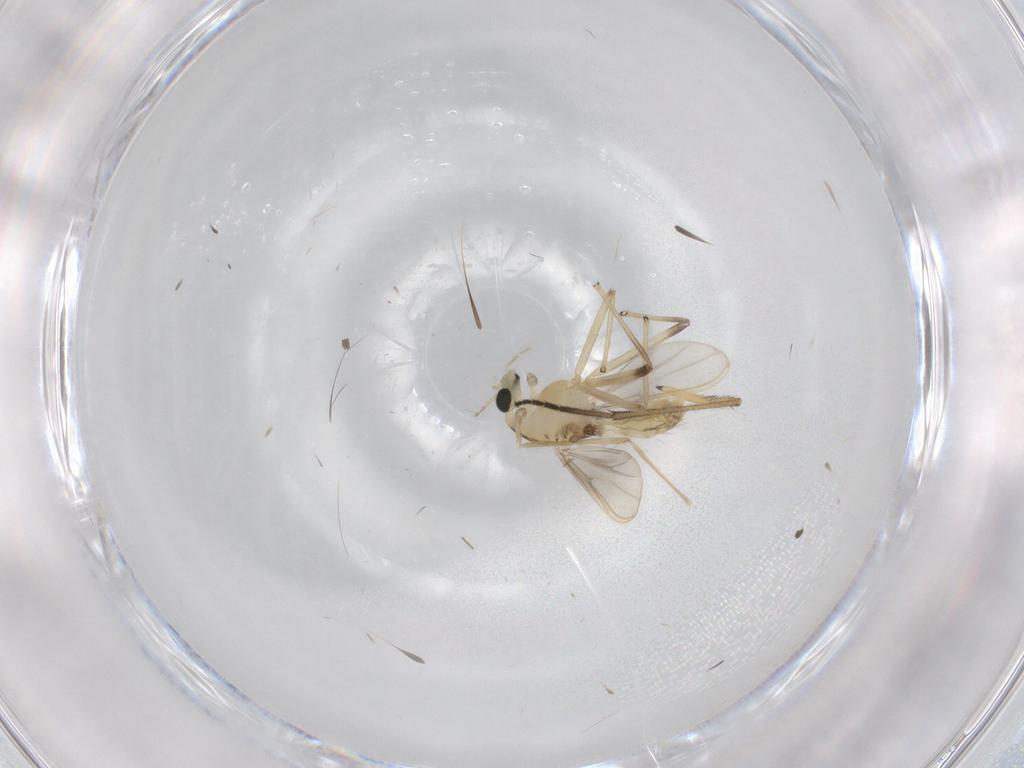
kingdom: Animalia
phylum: Arthropoda
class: Insecta
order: Diptera
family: Chironomidae
